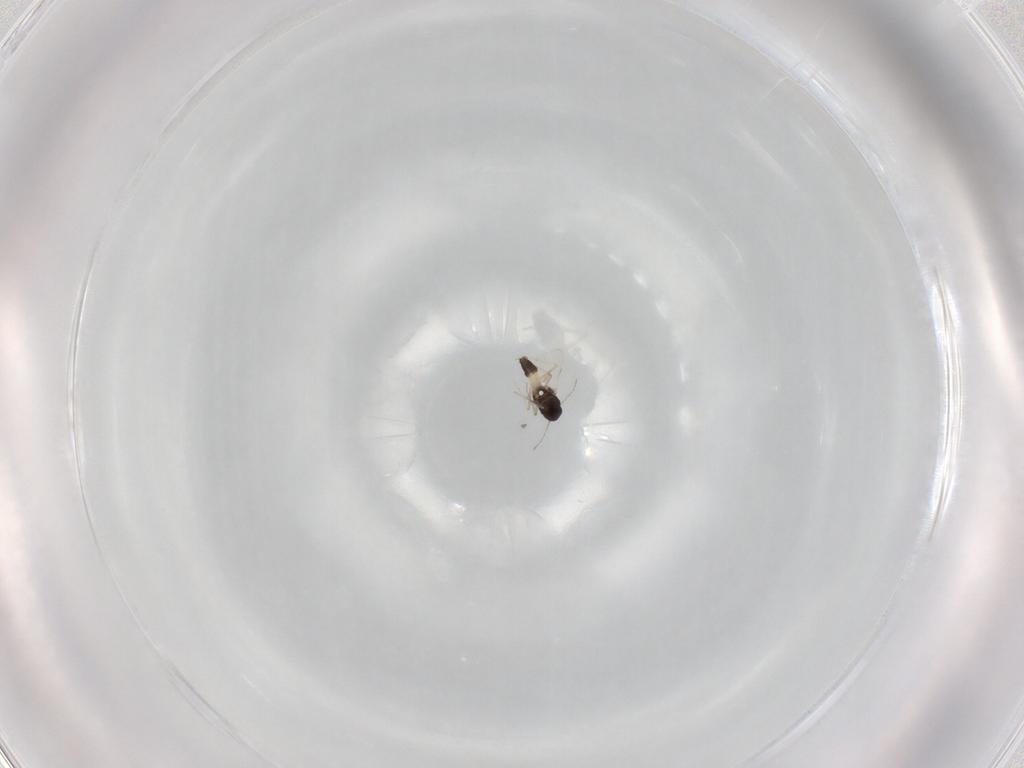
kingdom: Animalia
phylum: Arthropoda
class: Insecta
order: Diptera
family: Ceratopogonidae
